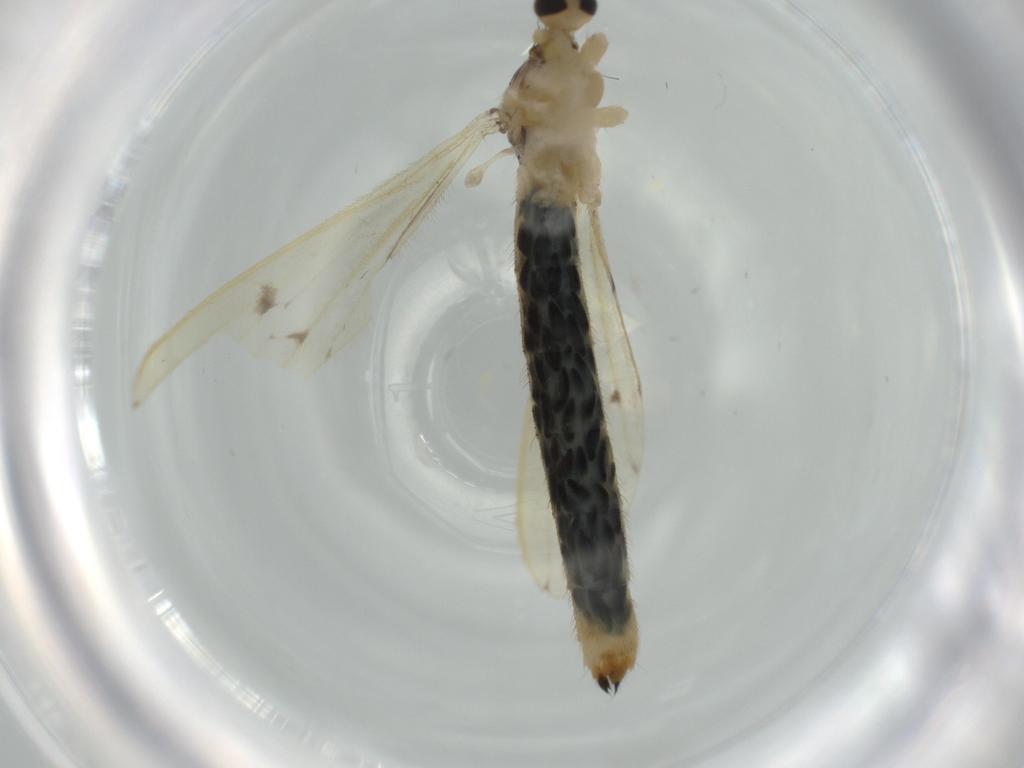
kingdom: Animalia
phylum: Arthropoda
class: Insecta
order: Diptera
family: Limoniidae
